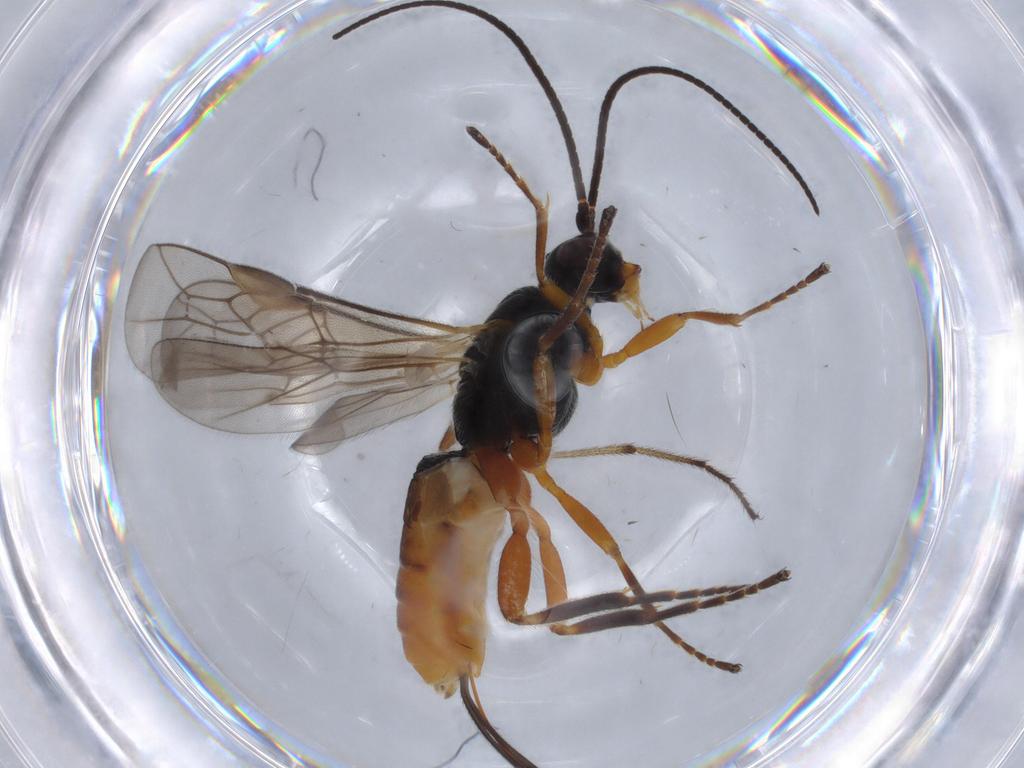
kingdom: Animalia
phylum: Arthropoda
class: Insecta
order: Hymenoptera
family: Braconidae
